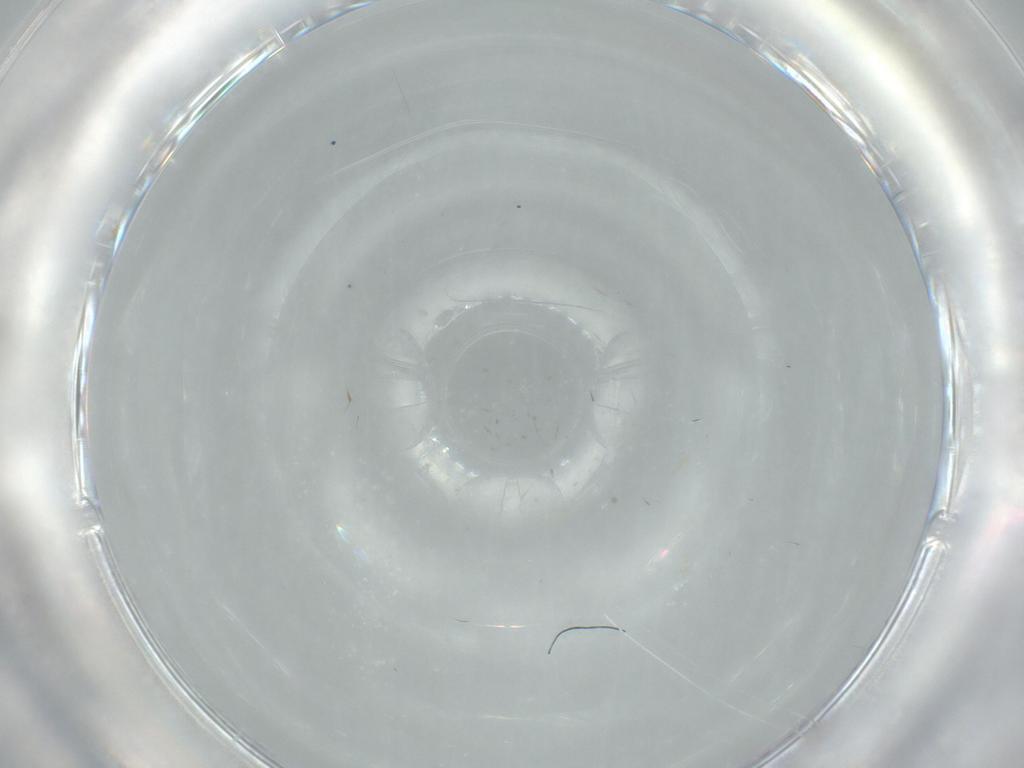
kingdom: Animalia
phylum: Arthropoda
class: Insecta
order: Hymenoptera
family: Mymaridae
